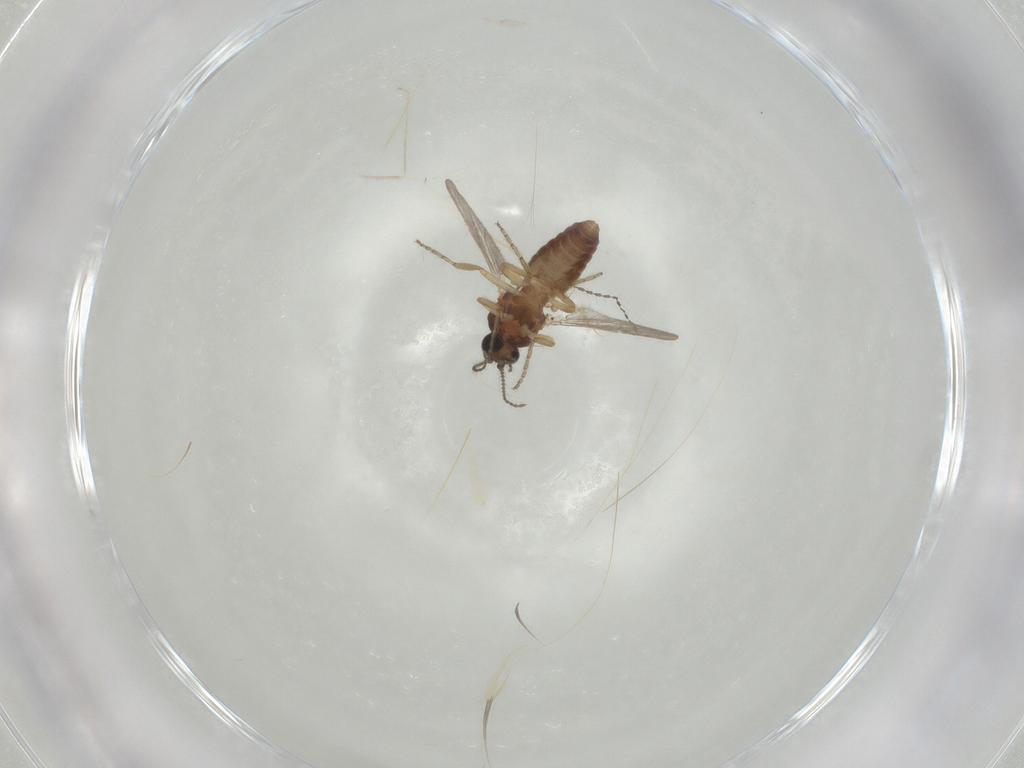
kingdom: Animalia
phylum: Arthropoda
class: Insecta
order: Diptera
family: Ceratopogonidae
